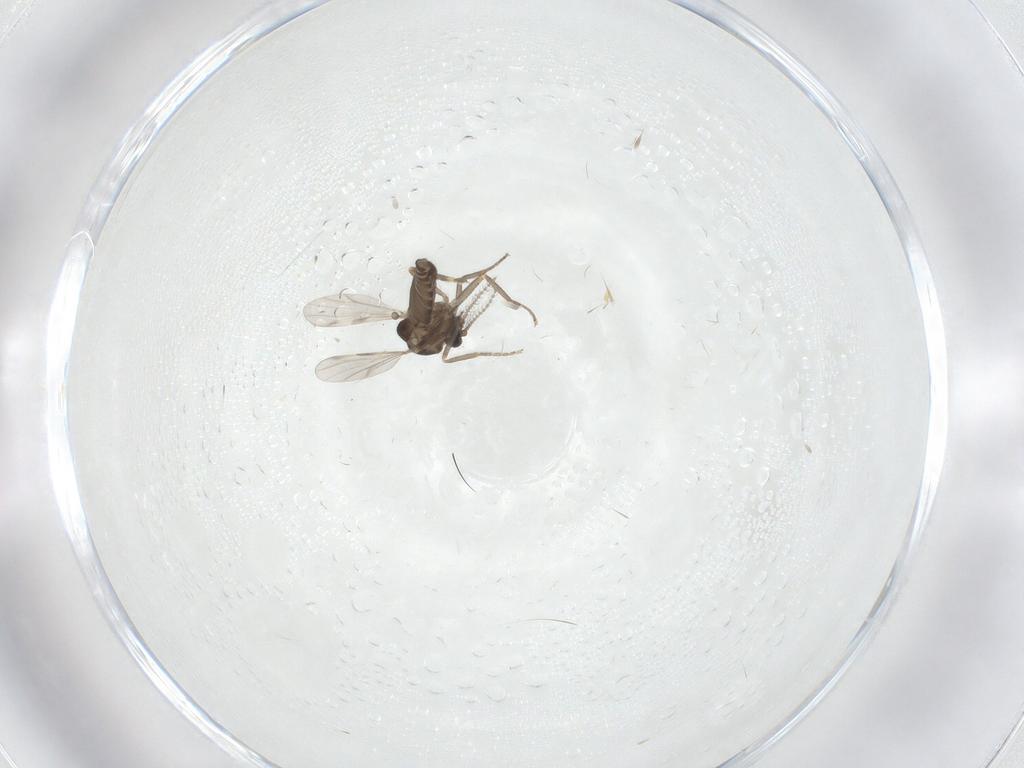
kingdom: Animalia
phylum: Arthropoda
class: Insecta
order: Diptera
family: Ceratopogonidae
